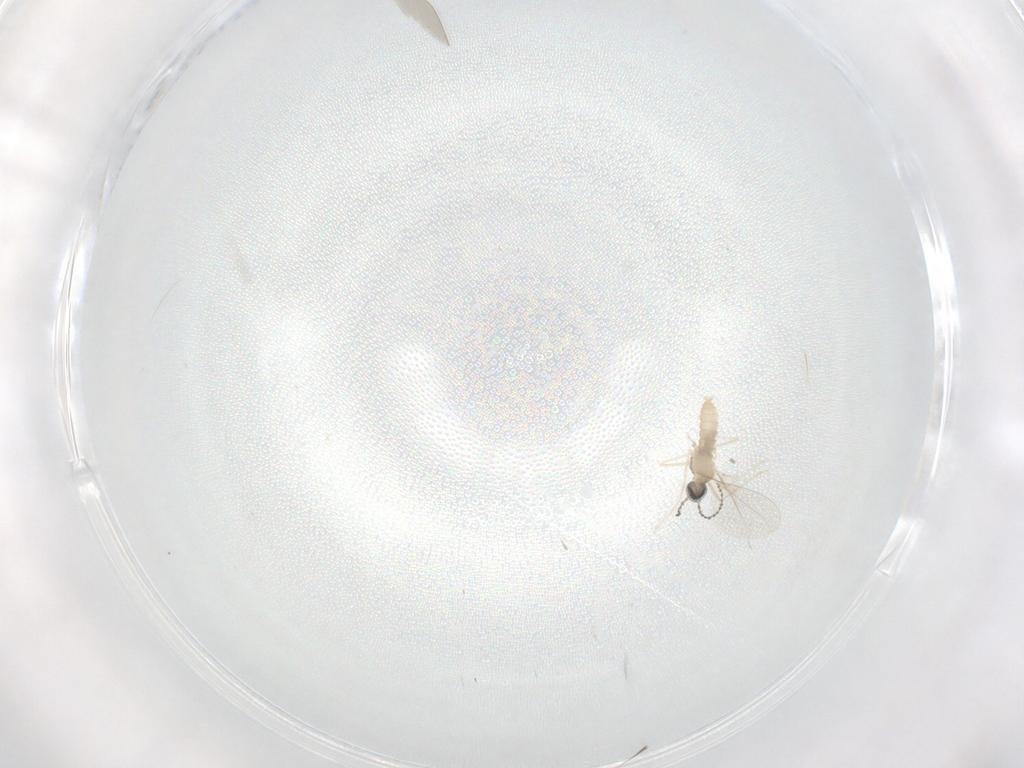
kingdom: Animalia
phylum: Arthropoda
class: Insecta
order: Diptera
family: Cecidomyiidae
